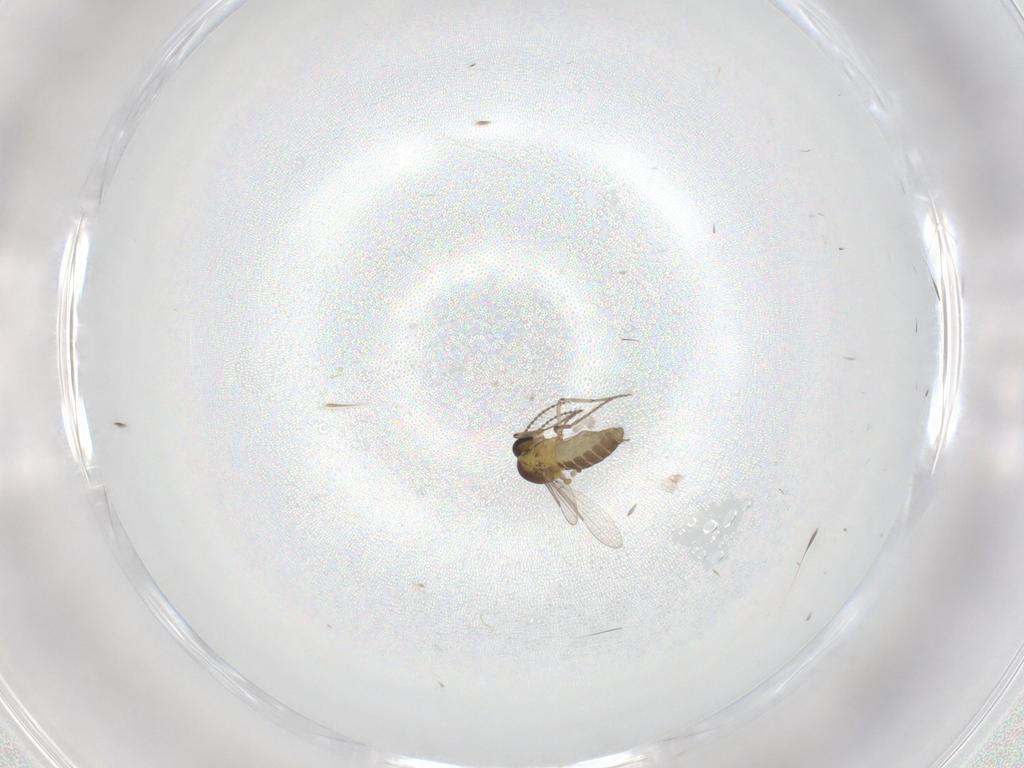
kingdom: Animalia
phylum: Arthropoda
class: Insecta
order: Diptera
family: Ceratopogonidae
